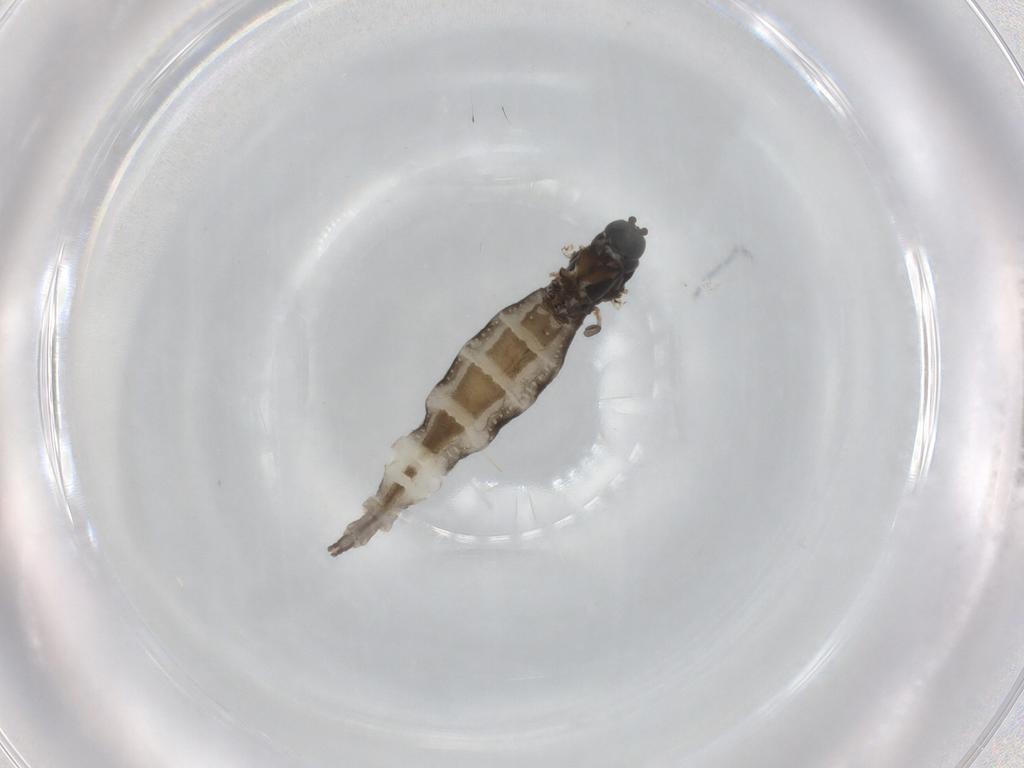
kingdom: Animalia
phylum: Arthropoda
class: Insecta
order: Diptera
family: Sciaridae
